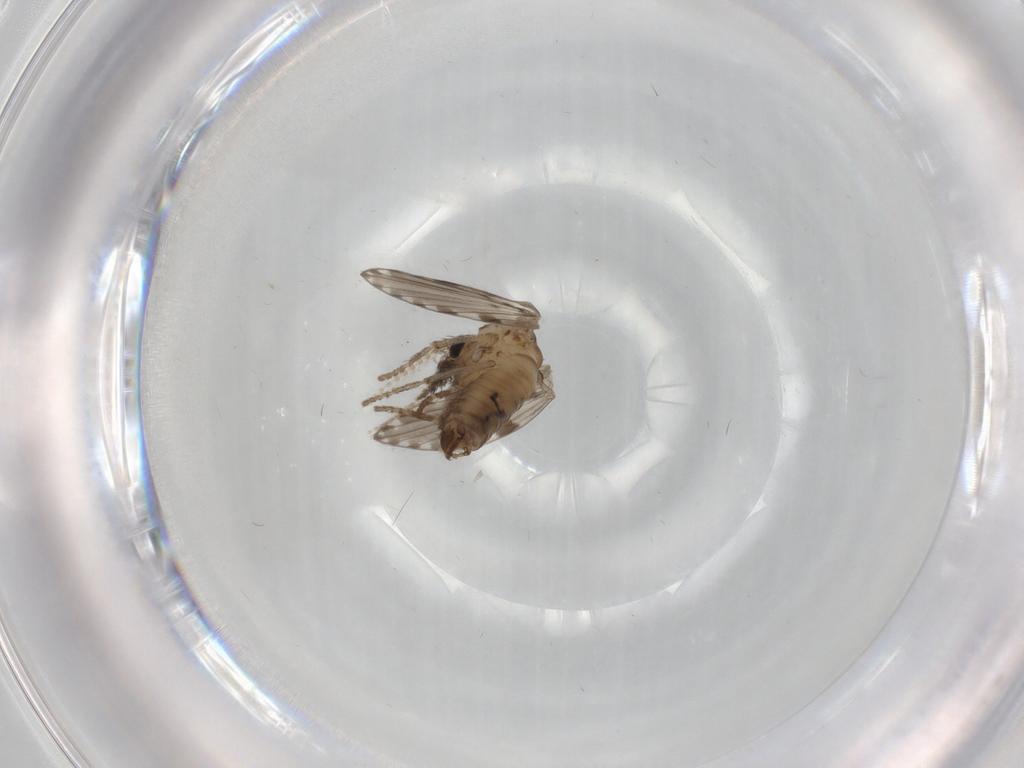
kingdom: Animalia
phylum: Arthropoda
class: Insecta
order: Diptera
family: Psychodidae
